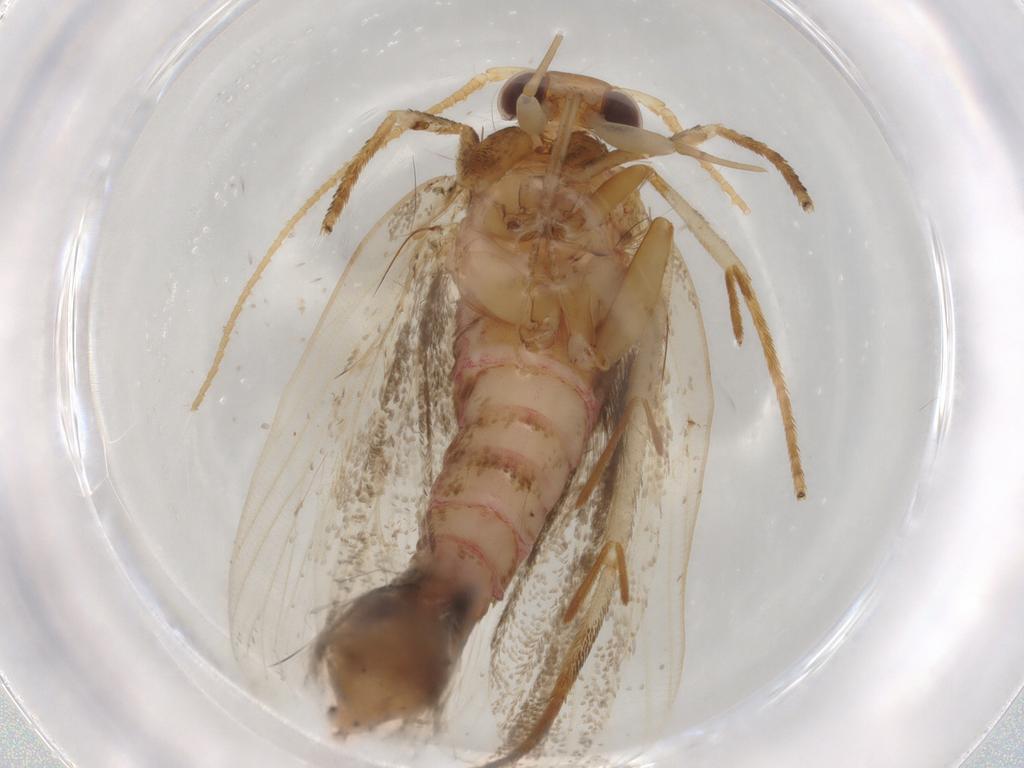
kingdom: Animalia
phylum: Arthropoda
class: Insecta
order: Lepidoptera
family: Lecithoceridae
